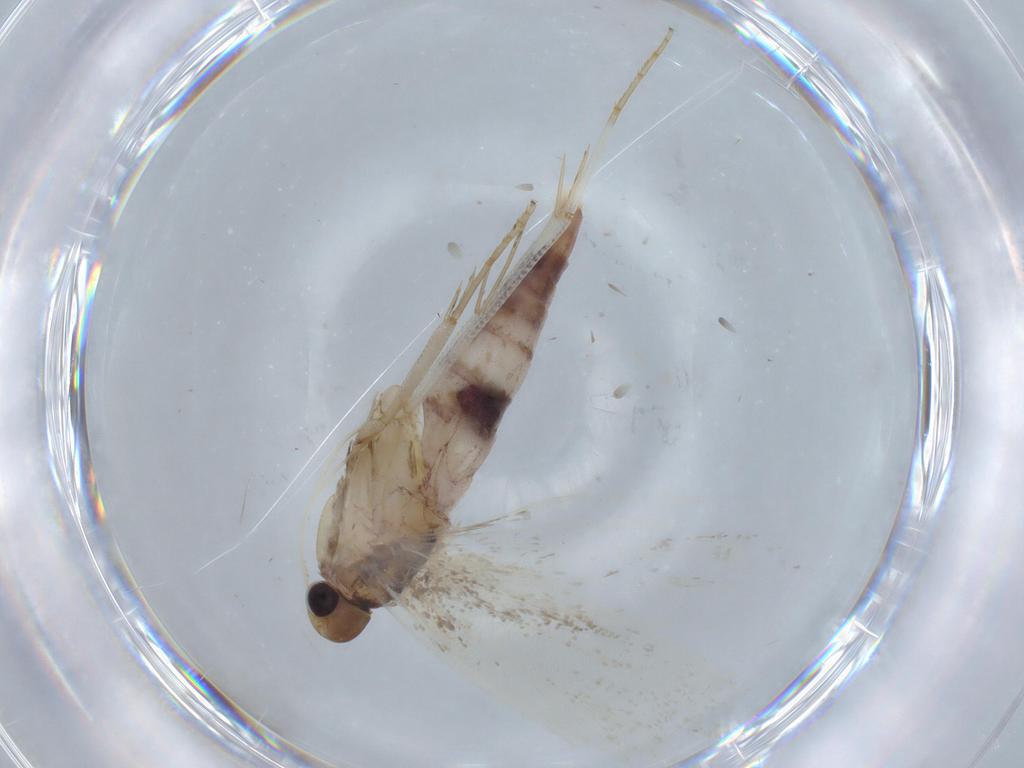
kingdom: Animalia
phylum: Arthropoda
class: Insecta
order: Lepidoptera
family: Gelechiidae
